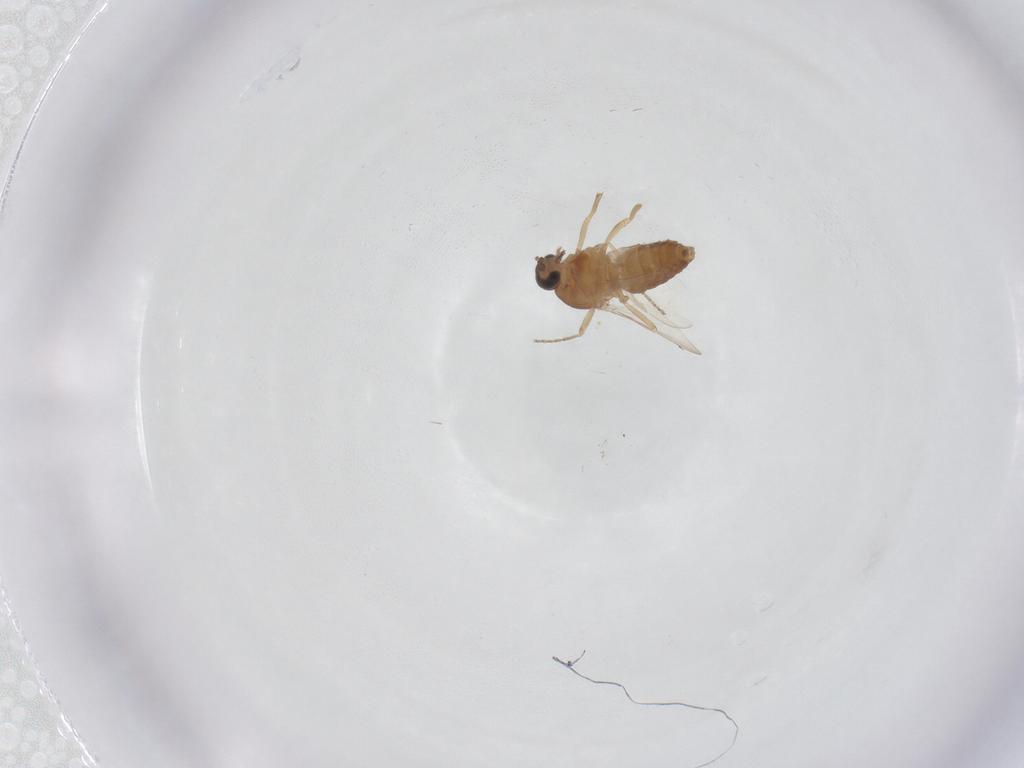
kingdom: Animalia
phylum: Arthropoda
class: Insecta
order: Diptera
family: Ceratopogonidae
